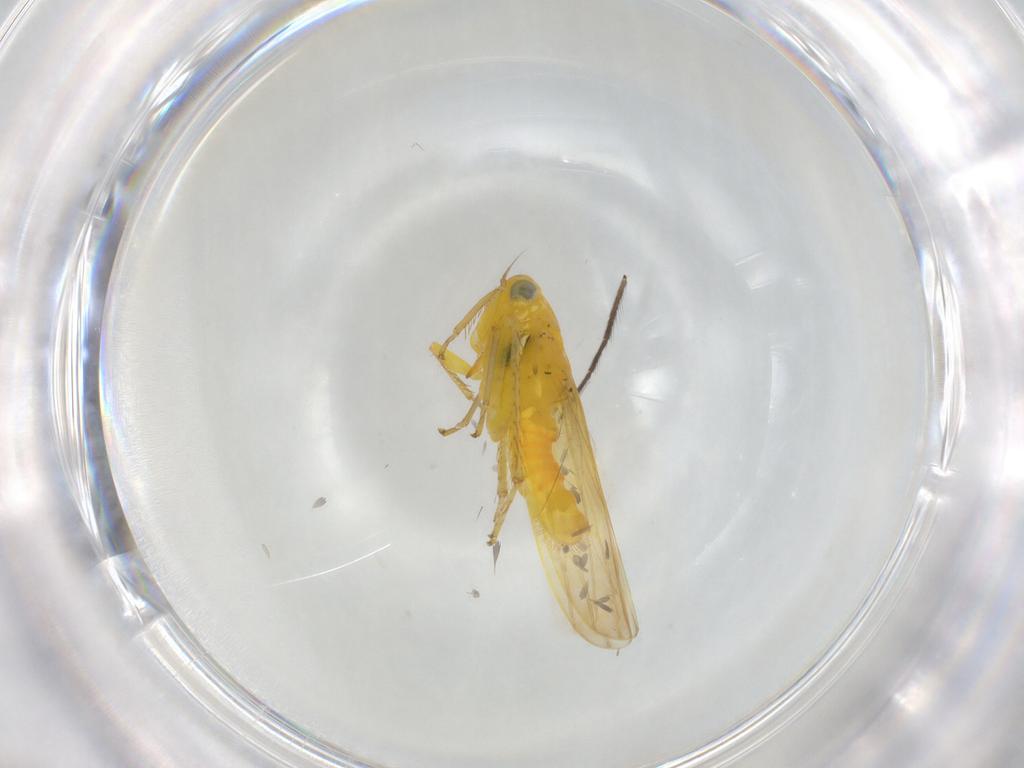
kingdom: Animalia
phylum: Arthropoda
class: Insecta
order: Hemiptera
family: Cicadellidae
